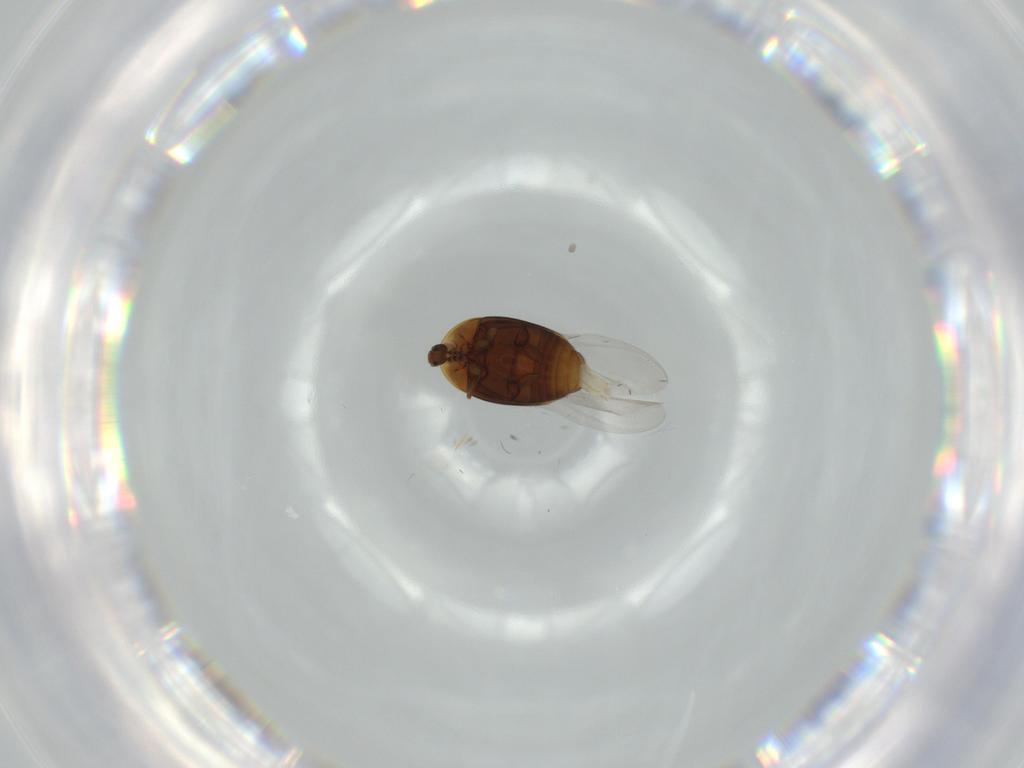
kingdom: Animalia
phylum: Arthropoda
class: Insecta
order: Coleoptera
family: Corylophidae
